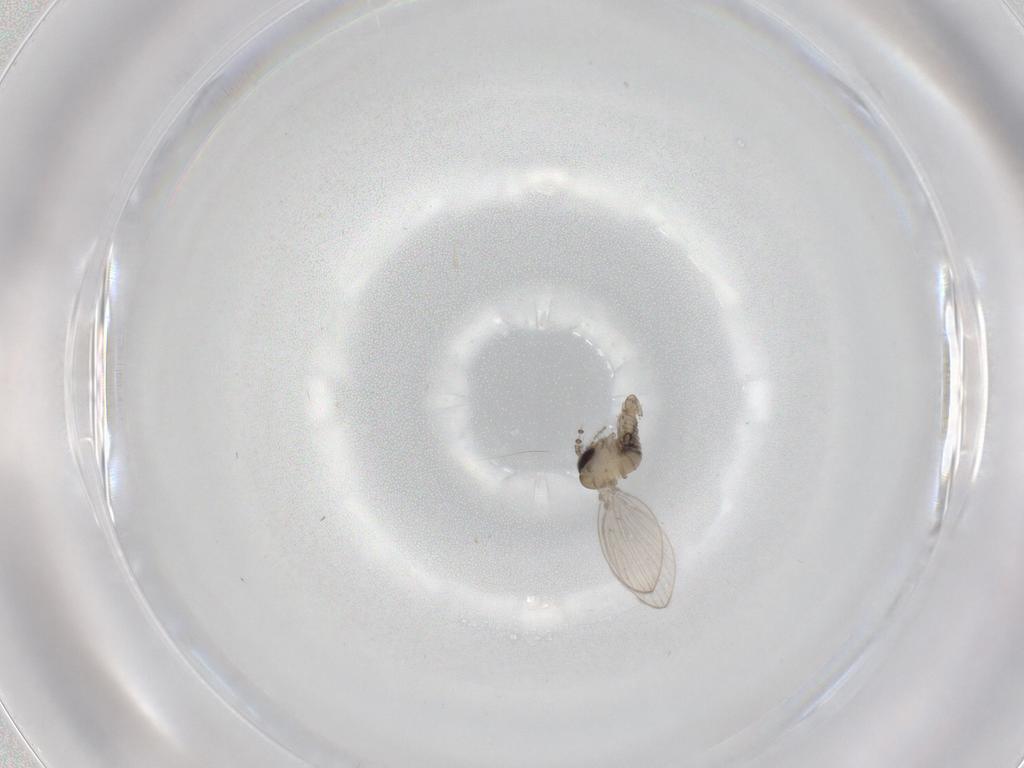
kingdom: Animalia
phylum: Arthropoda
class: Insecta
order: Diptera
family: Psychodidae
